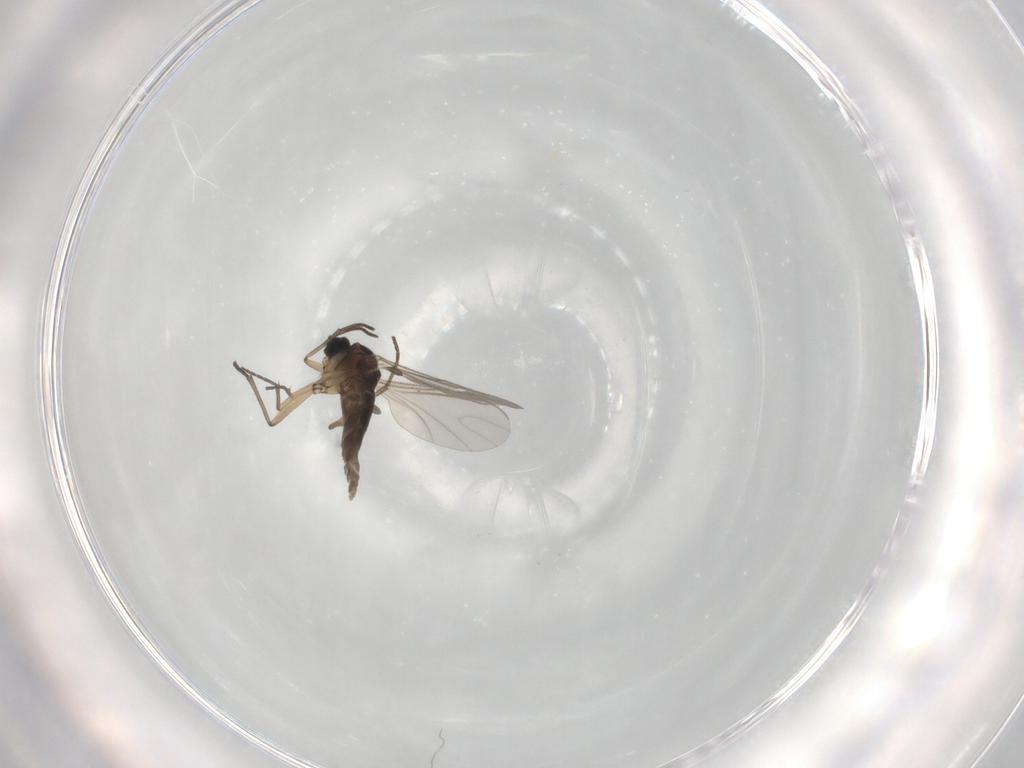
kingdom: Animalia
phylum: Arthropoda
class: Insecta
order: Diptera
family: Sciaridae
